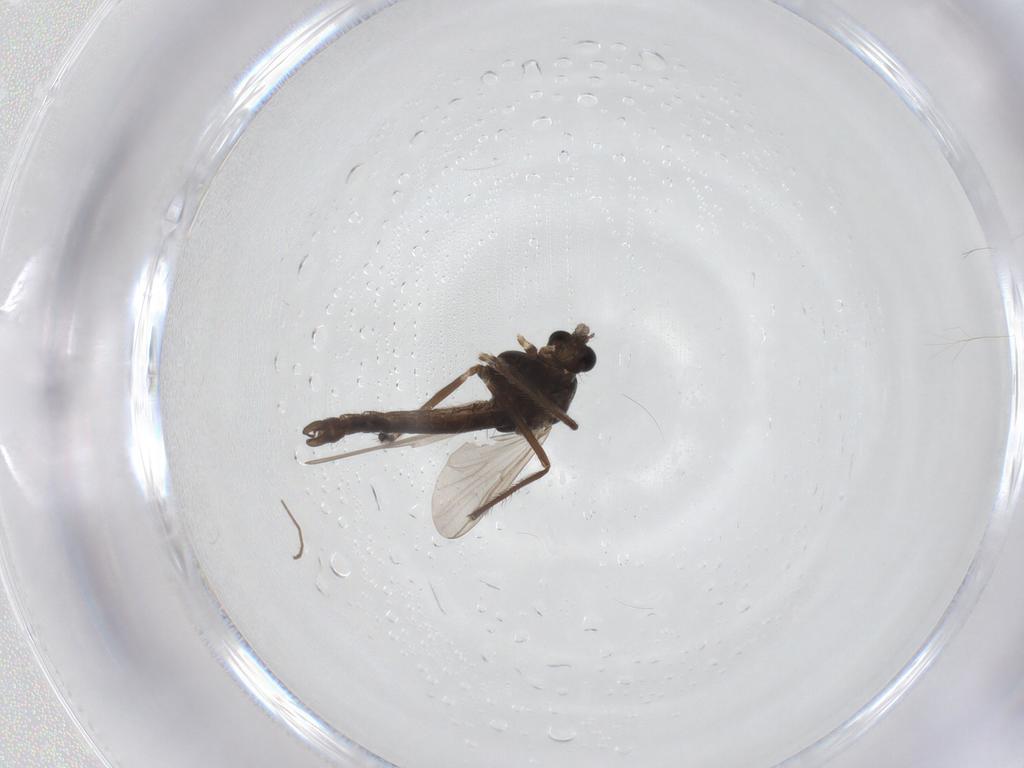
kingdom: Animalia
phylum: Arthropoda
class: Insecta
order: Diptera
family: Chironomidae
